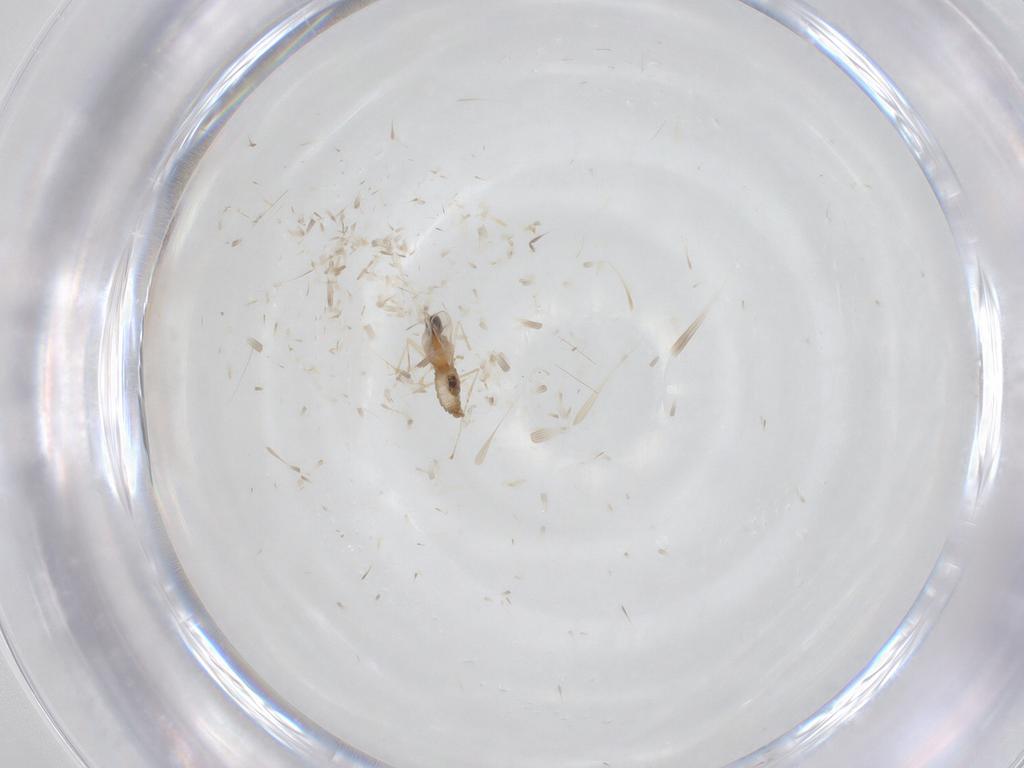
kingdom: Animalia
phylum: Arthropoda
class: Insecta
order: Diptera
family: Cecidomyiidae
